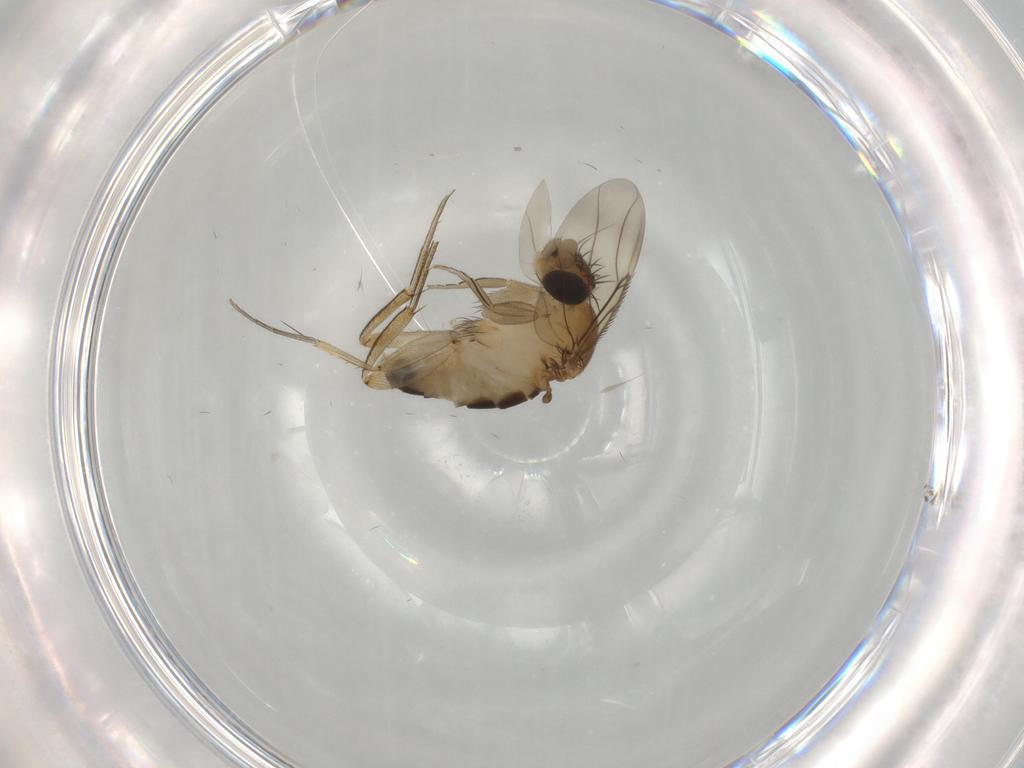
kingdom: Animalia
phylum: Arthropoda
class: Insecta
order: Diptera
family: Phoridae
